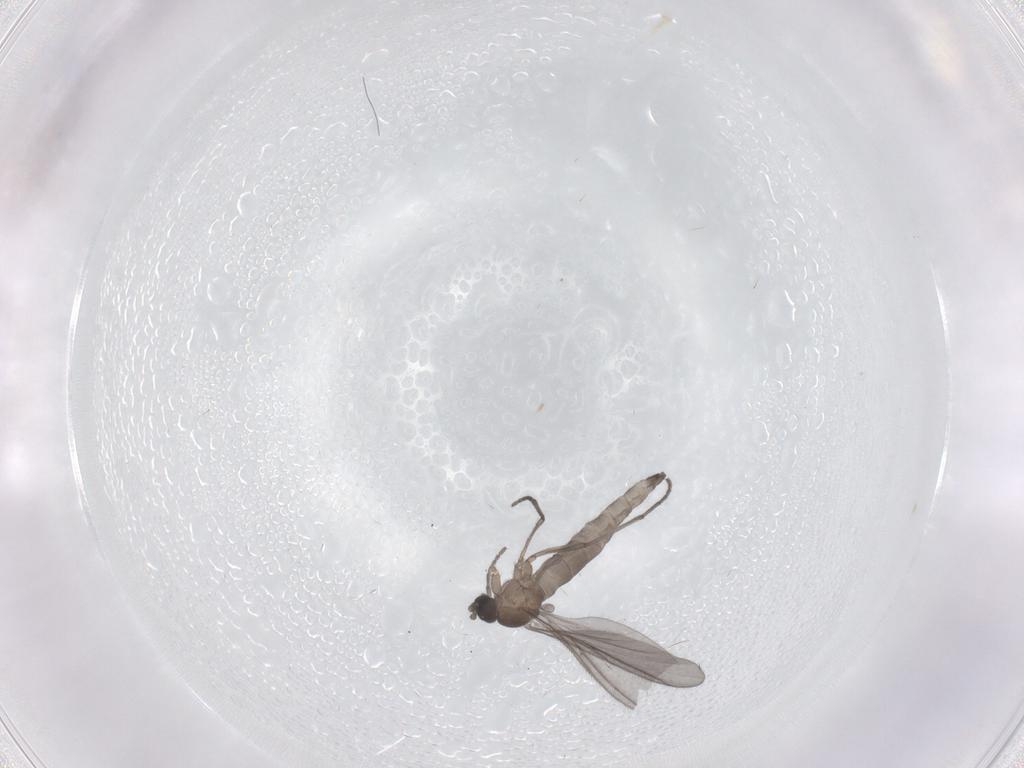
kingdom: Animalia
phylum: Arthropoda
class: Insecta
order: Diptera
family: Sciaridae
